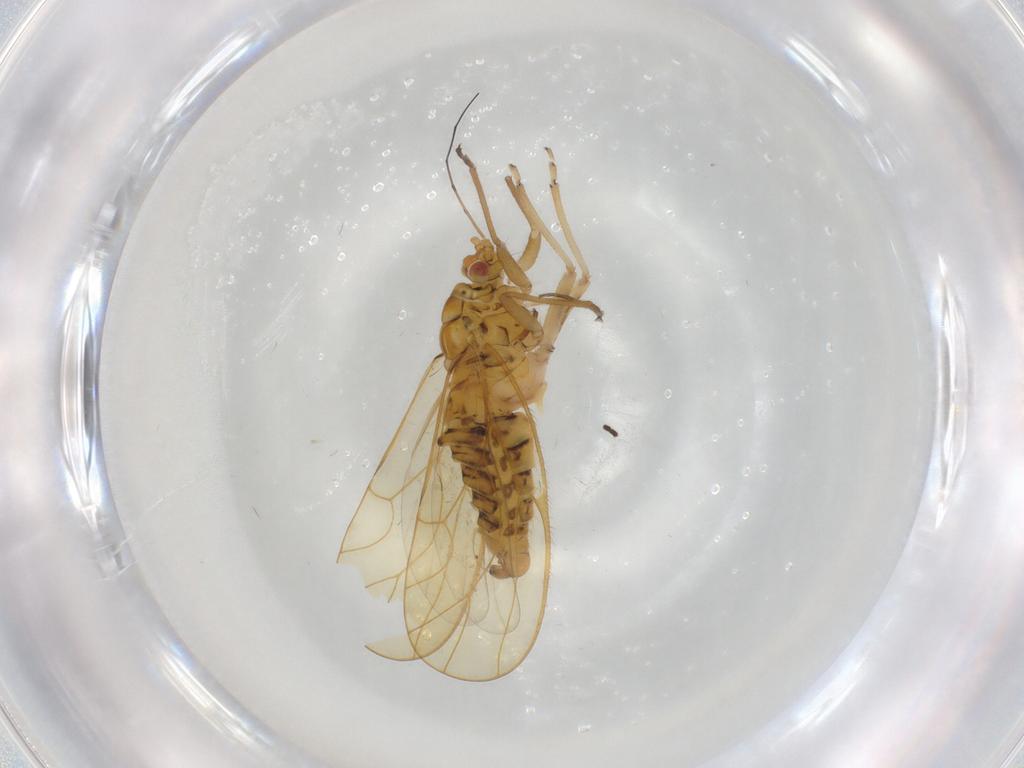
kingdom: Animalia
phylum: Arthropoda
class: Insecta
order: Hemiptera
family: Psyllidae
